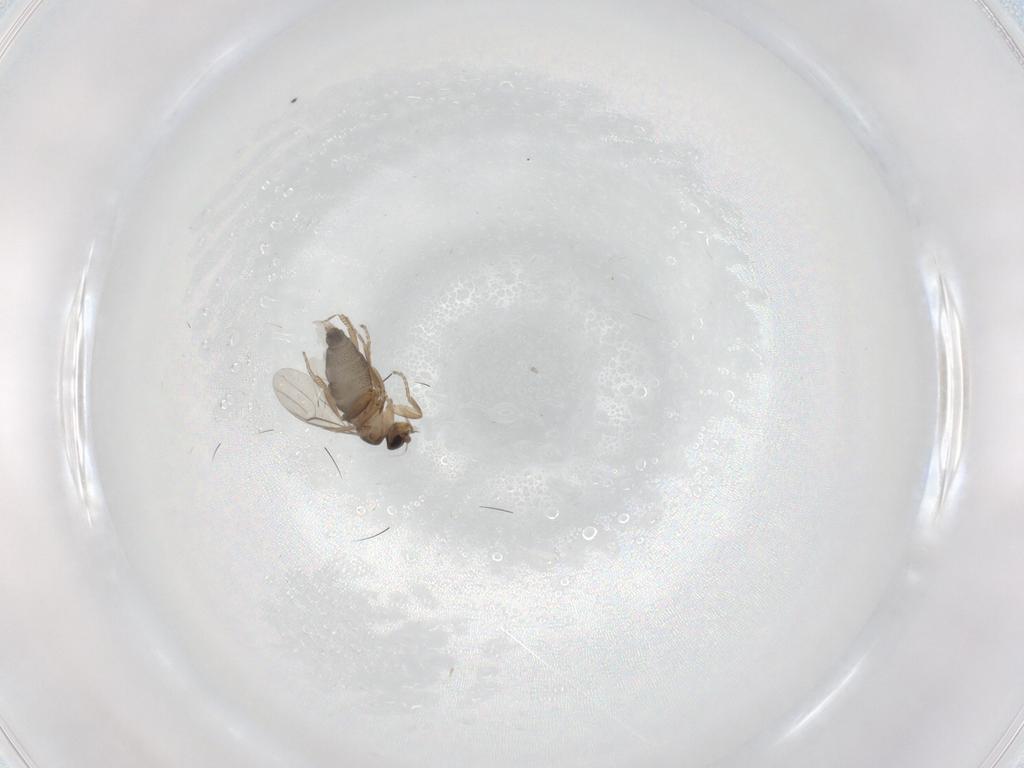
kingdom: Animalia
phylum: Arthropoda
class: Insecta
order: Diptera
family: Phoridae
